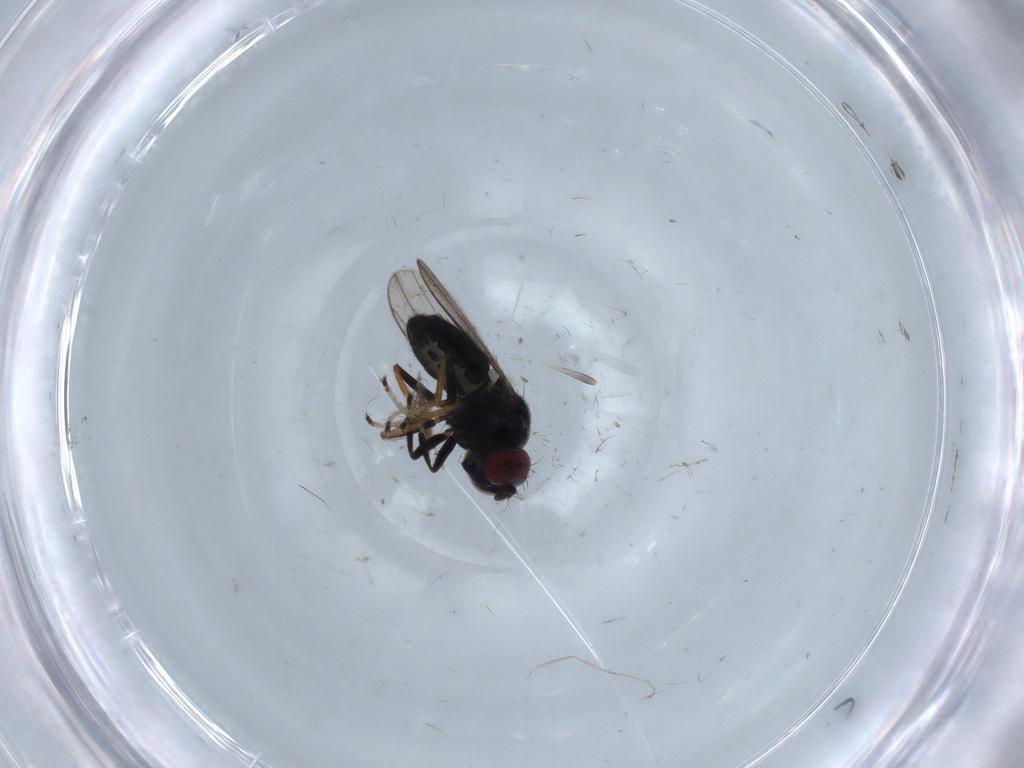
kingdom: Animalia
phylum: Arthropoda
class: Insecta
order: Diptera
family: Ceratopogonidae
